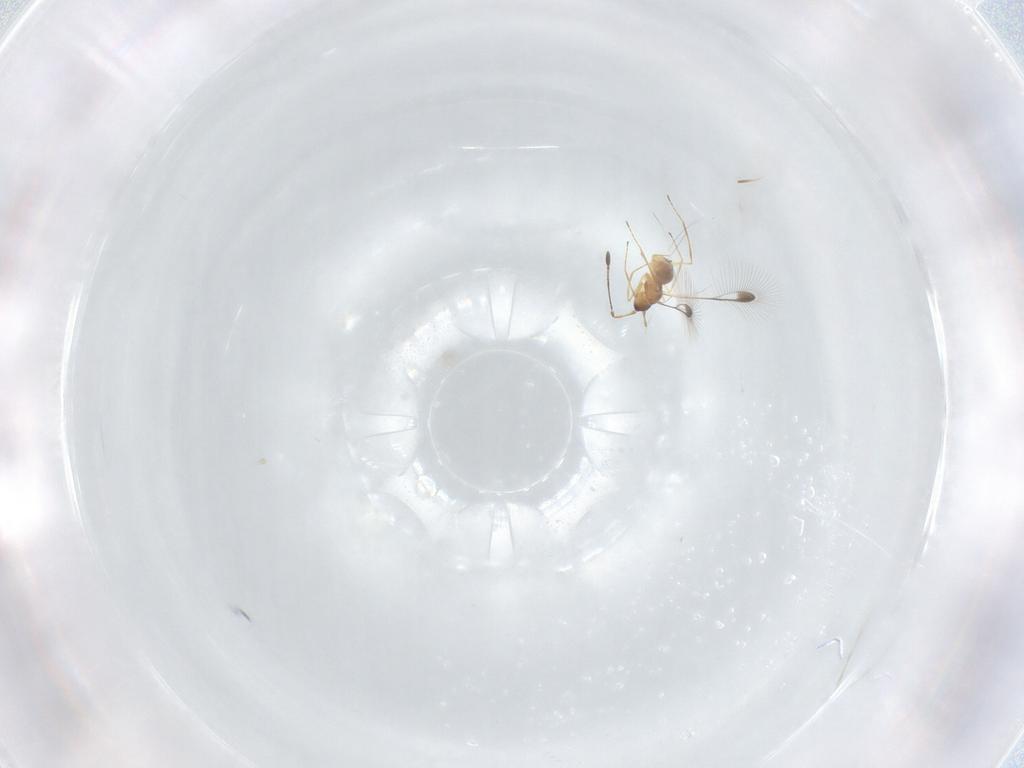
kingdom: Animalia
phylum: Arthropoda
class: Insecta
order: Hymenoptera
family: Mymaridae
